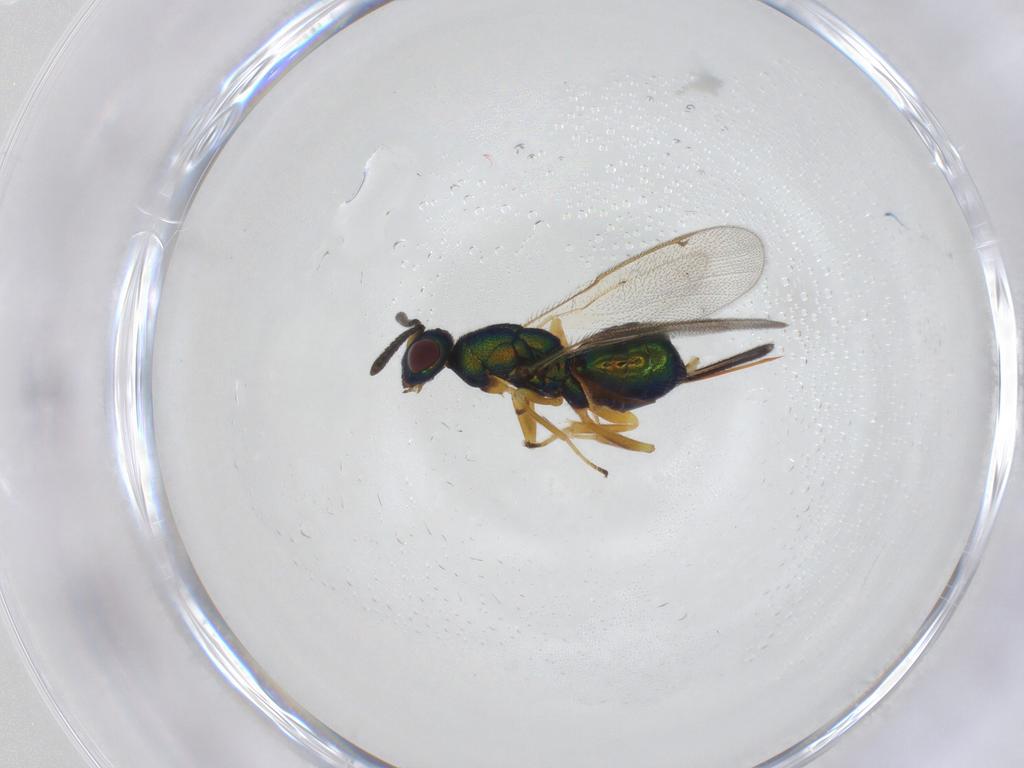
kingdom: Animalia
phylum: Arthropoda
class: Insecta
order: Hymenoptera
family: Torymidae
